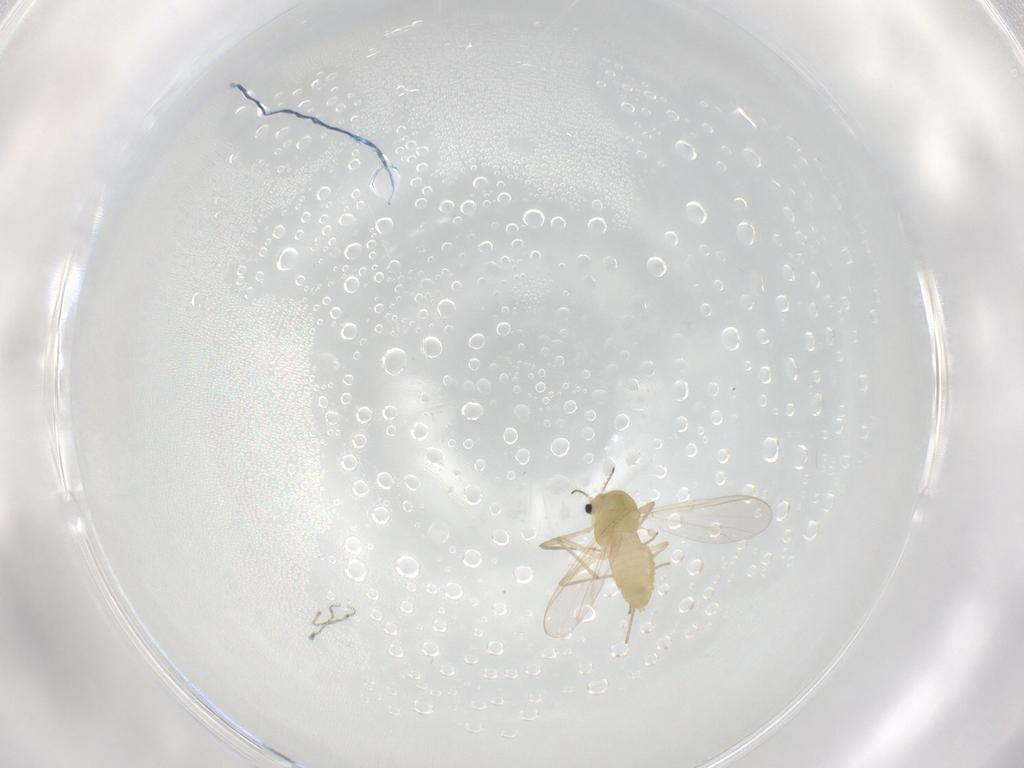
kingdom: Animalia
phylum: Arthropoda
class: Insecta
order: Diptera
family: Chironomidae
